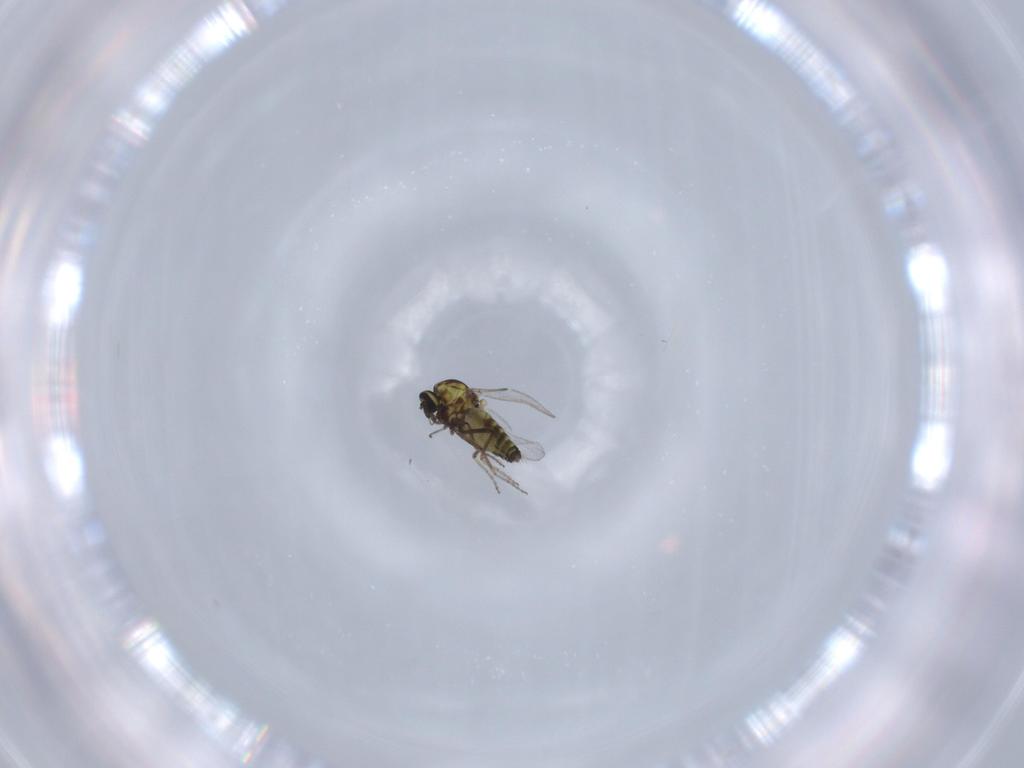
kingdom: Animalia
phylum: Arthropoda
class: Insecta
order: Diptera
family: Ceratopogonidae
